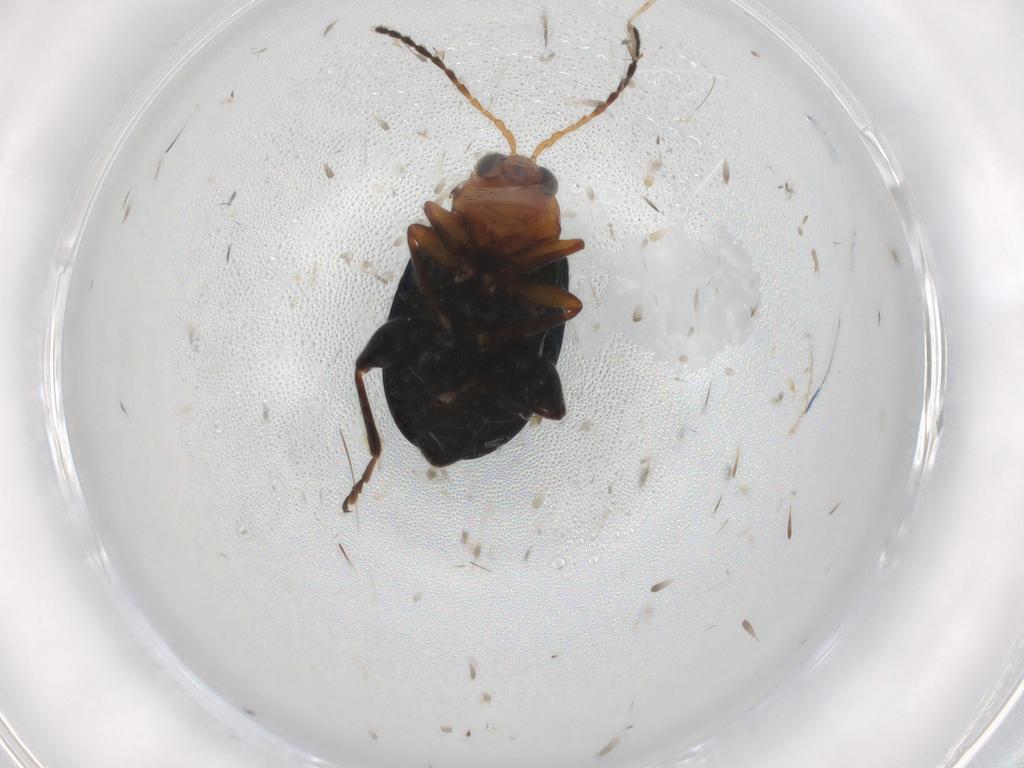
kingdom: Animalia
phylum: Arthropoda
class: Insecta
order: Coleoptera
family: Chrysomelidae
